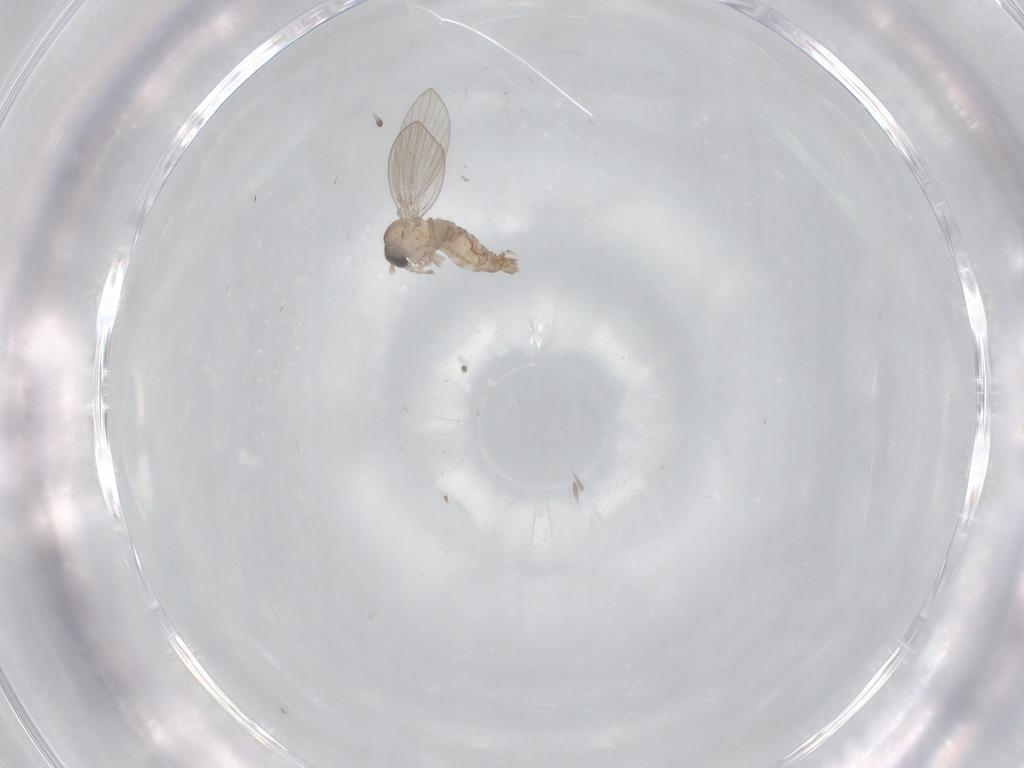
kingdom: Animalia
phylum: Arthropoda
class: Insecta
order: Diptera
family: Psychodidae
